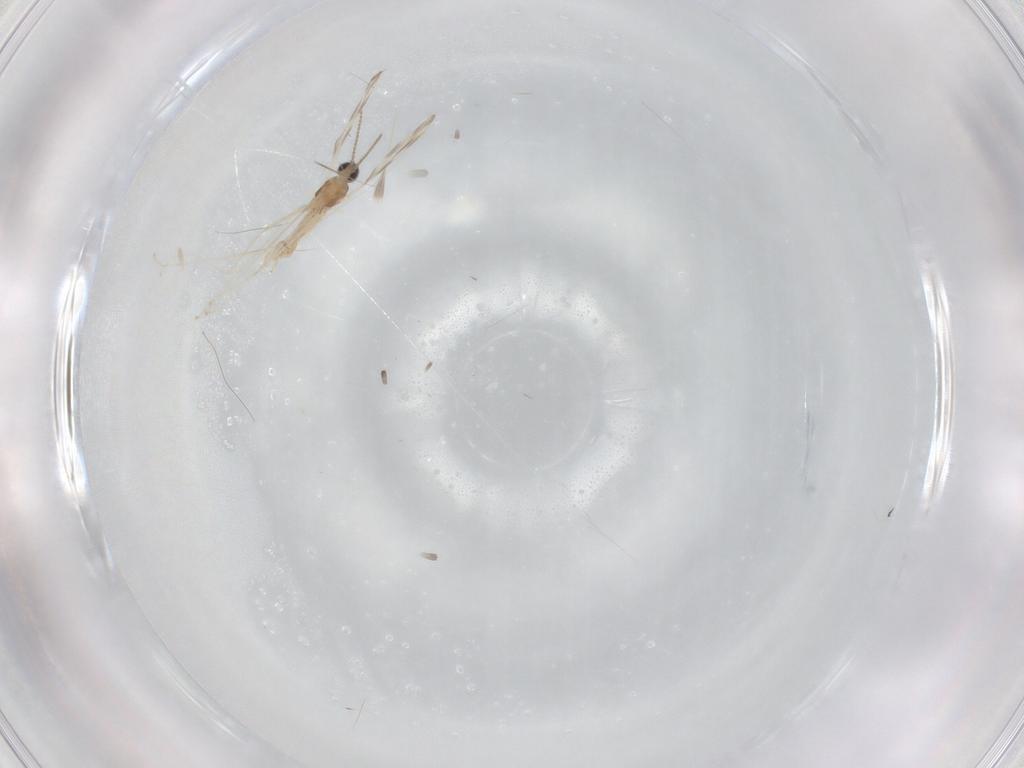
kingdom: Animalia
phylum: Arthropoda
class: Insecta
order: Diptera
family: Cecidomyiidae
